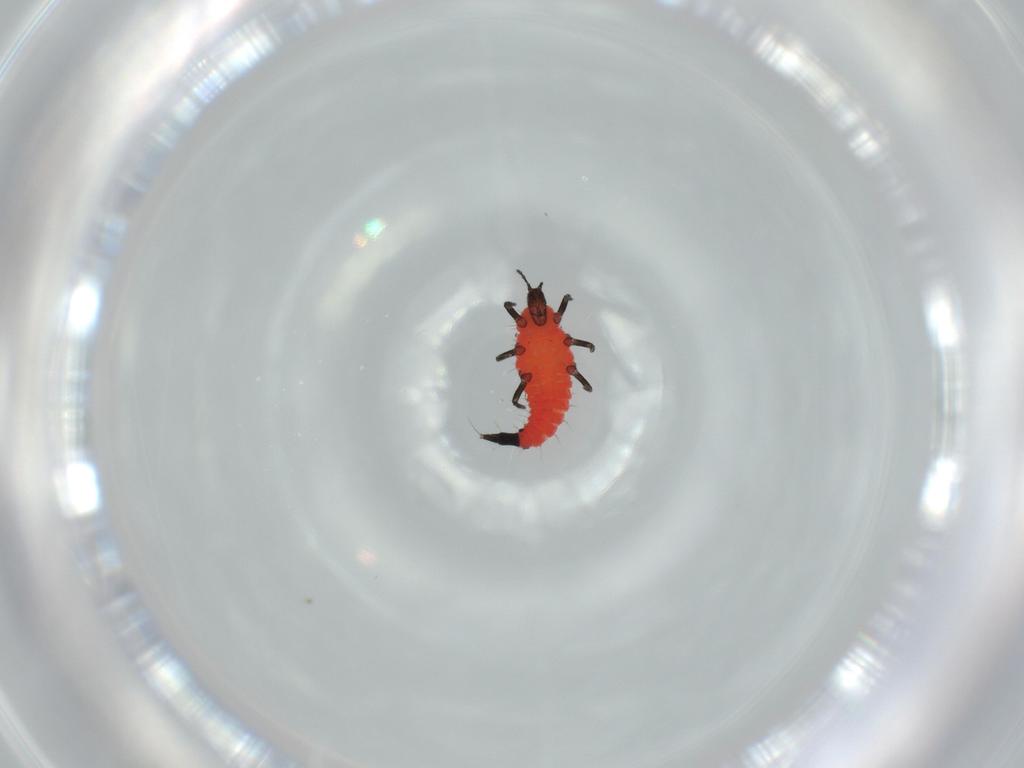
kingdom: Animalia
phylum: Arthropoda
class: Insecta
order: Thysanoptera
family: Phlaeothripidae
